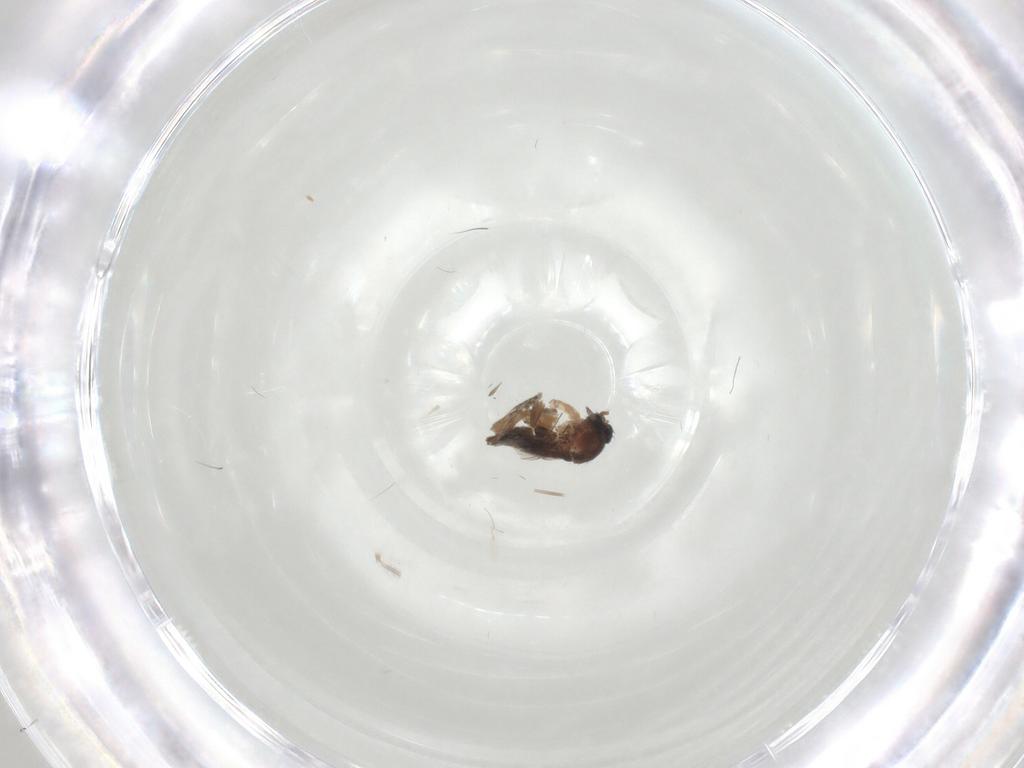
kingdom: Animalia
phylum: Arthropoda
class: Insecta
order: Diptera
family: Chironomidae
